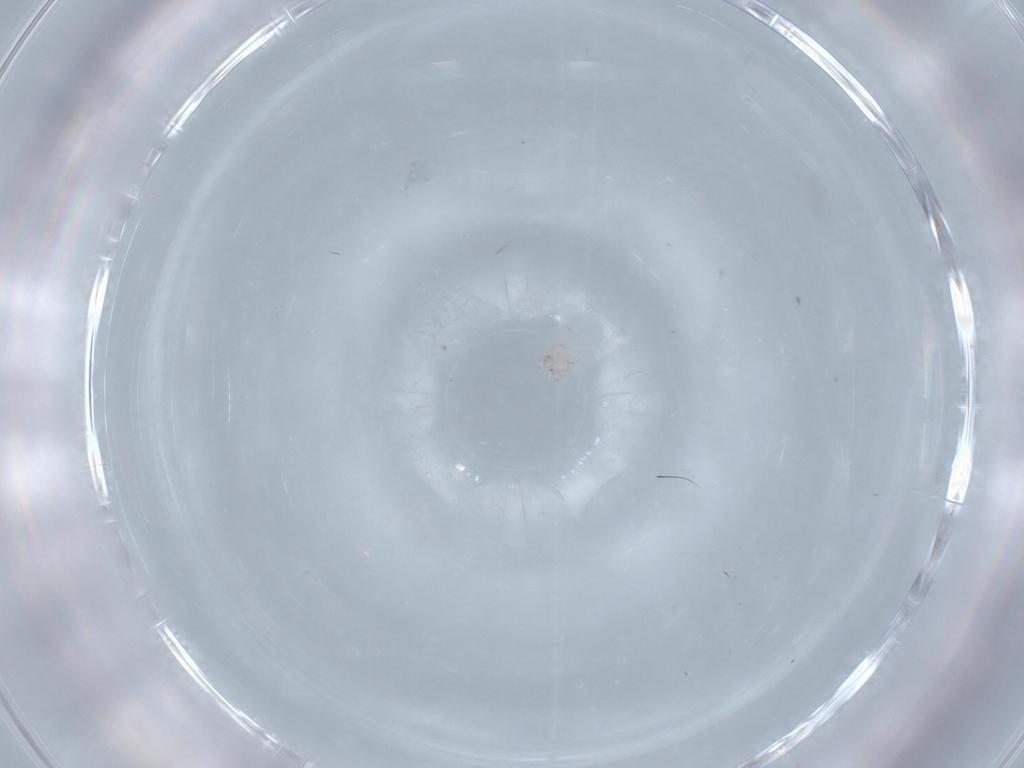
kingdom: Animalia
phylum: Arthropoda
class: Arachnida
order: Trombidiformes
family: Lebertiidae
